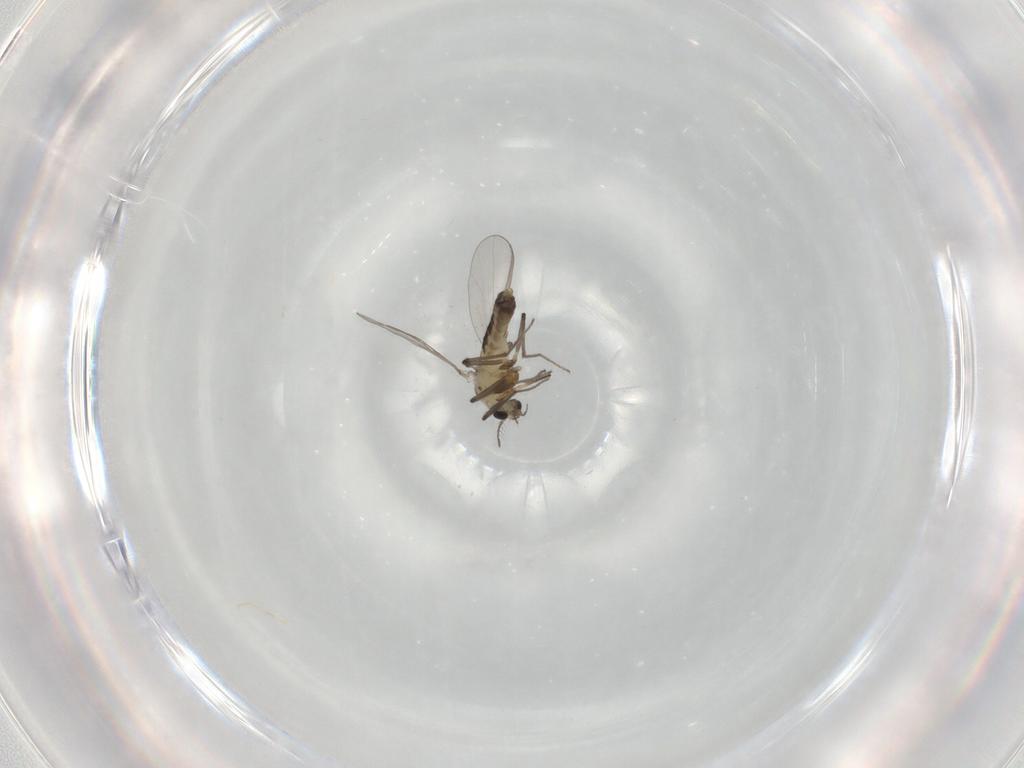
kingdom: Animalia
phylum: Arthropoda
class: Insecta
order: Diptera
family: Chironomidae
